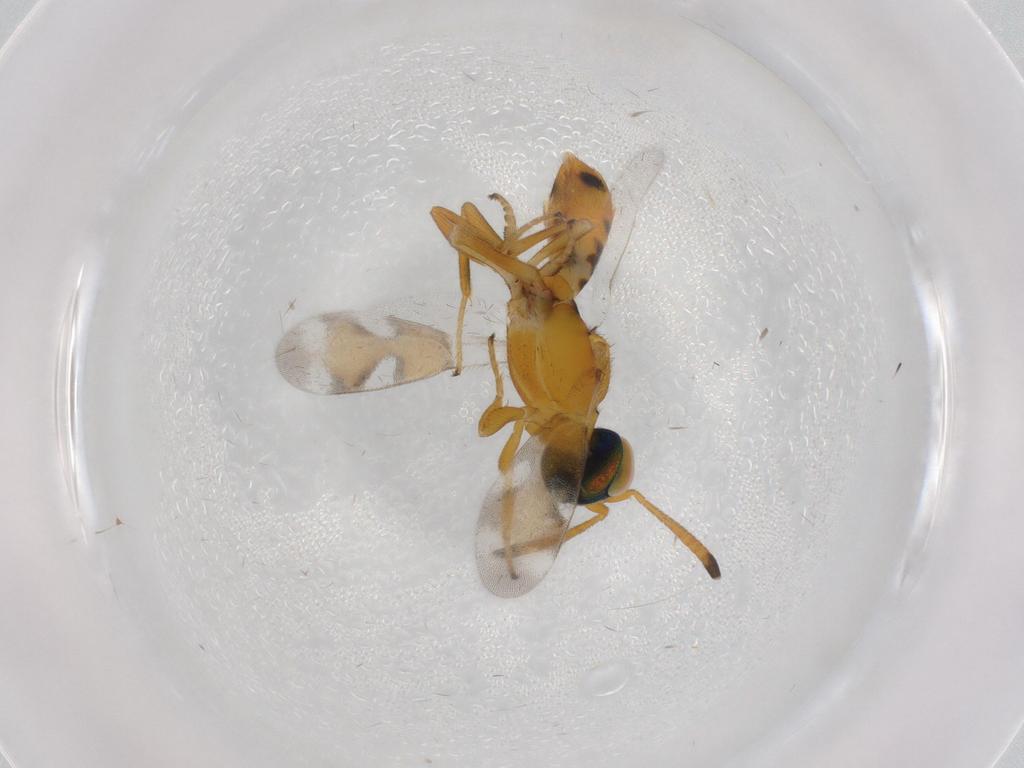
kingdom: Animalia
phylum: Arthropoda
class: Insecta
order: Hymenoptera
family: Eupelmidae
